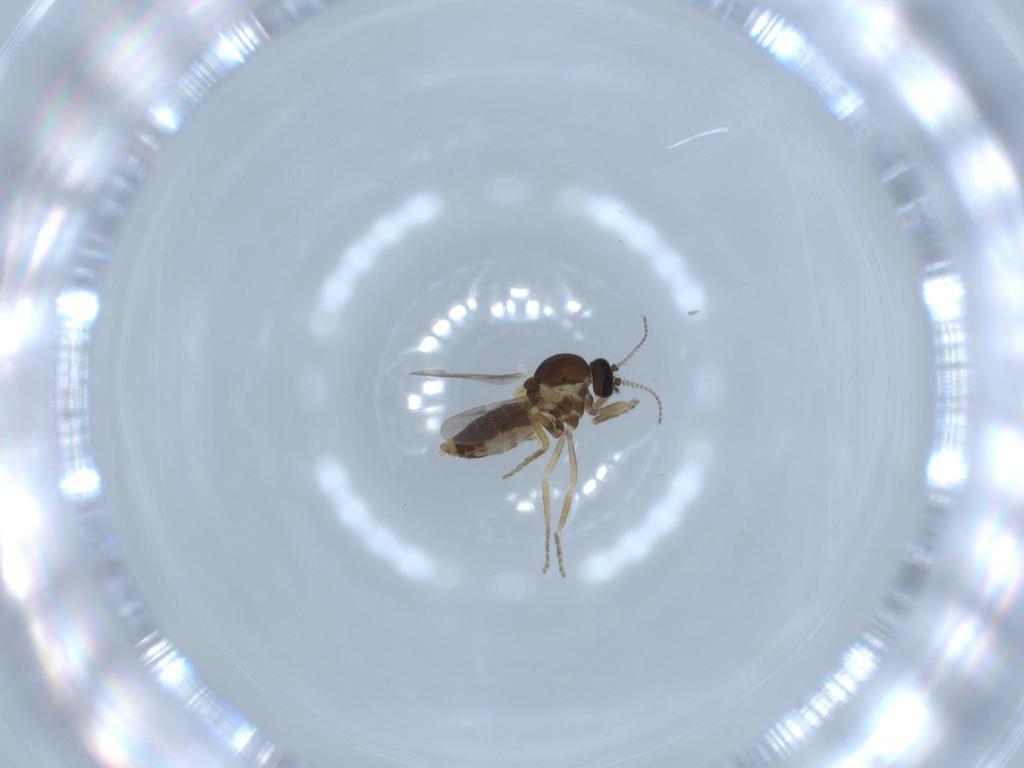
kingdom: Animalia
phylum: Arthropoda
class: Insecta
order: Diptera
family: Ceratopogonidae
